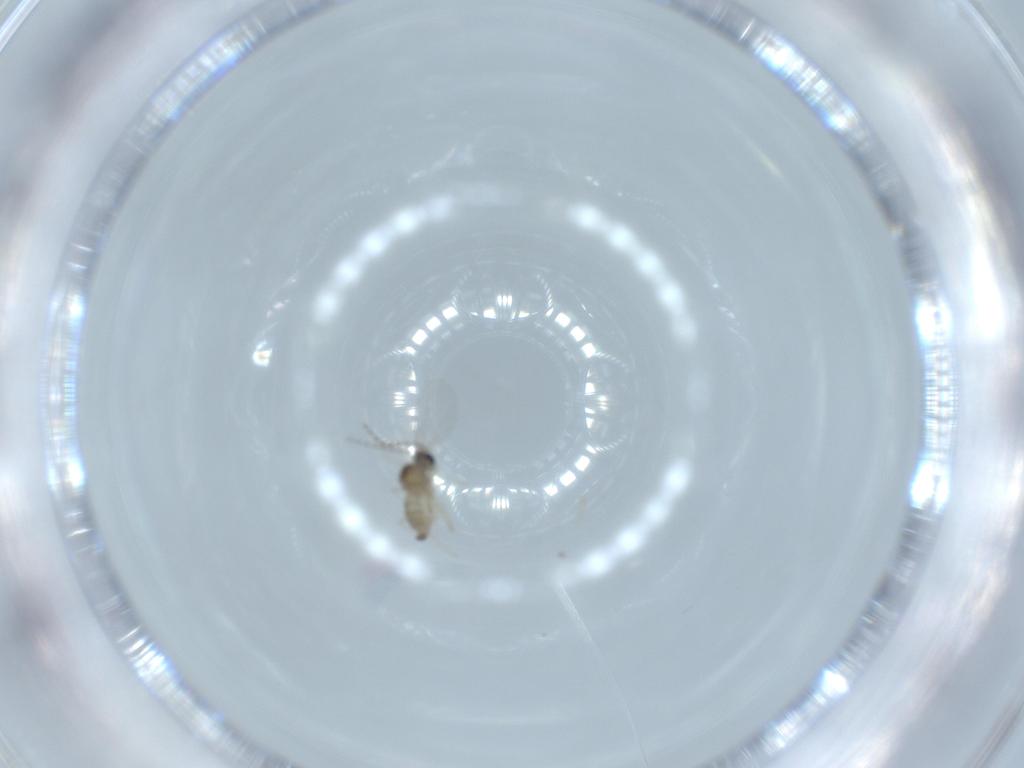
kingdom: Animalia
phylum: Arthropoda
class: Insecta
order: Diptera
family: Cecidomyiidae
